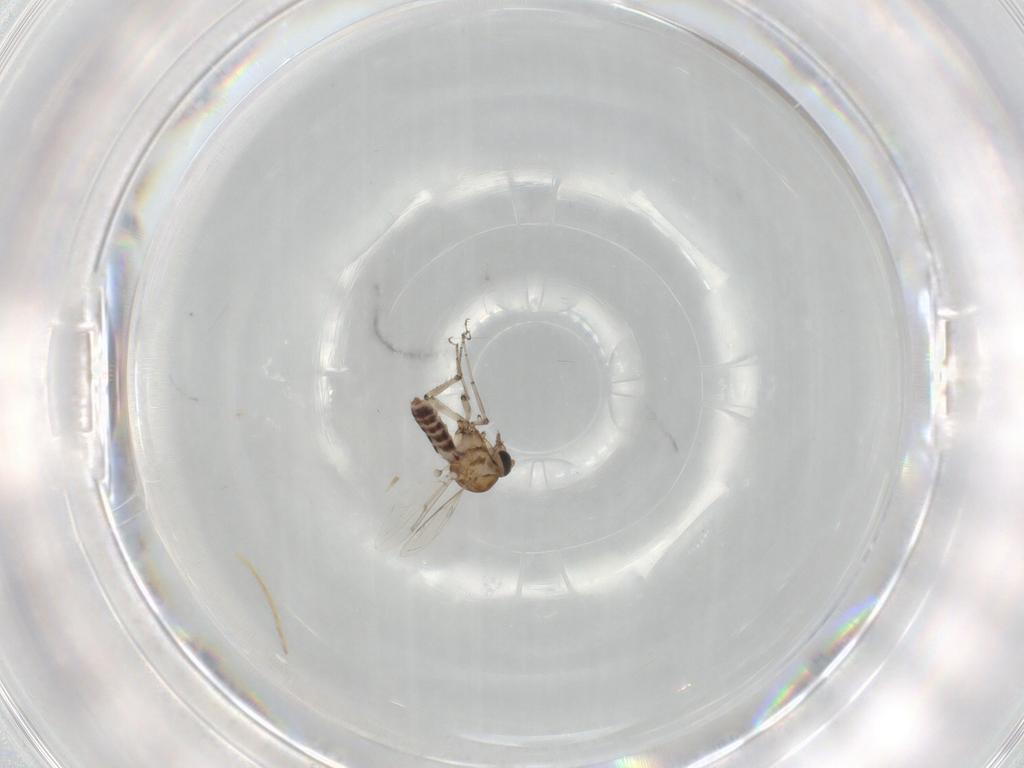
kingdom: Animalia
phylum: Arthropoda
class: Insecta
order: Diptera
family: Ceratopogonidae
